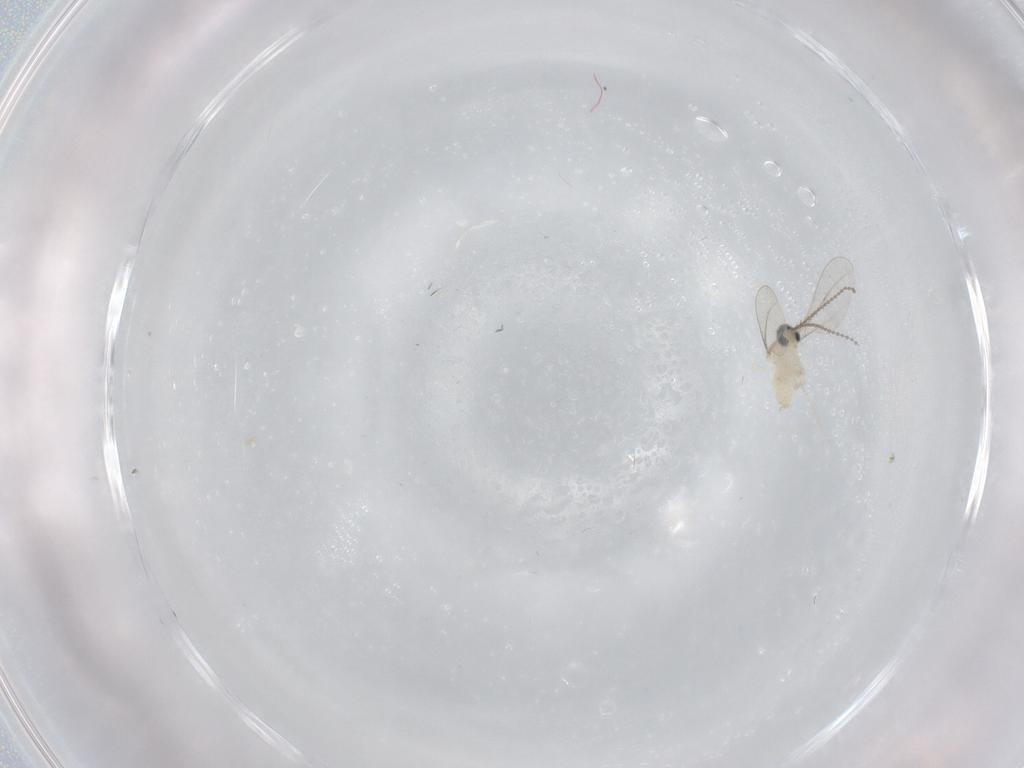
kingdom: Animalia
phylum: Arthropoda
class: Insecta
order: Diptera
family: Cecidomyiidae
